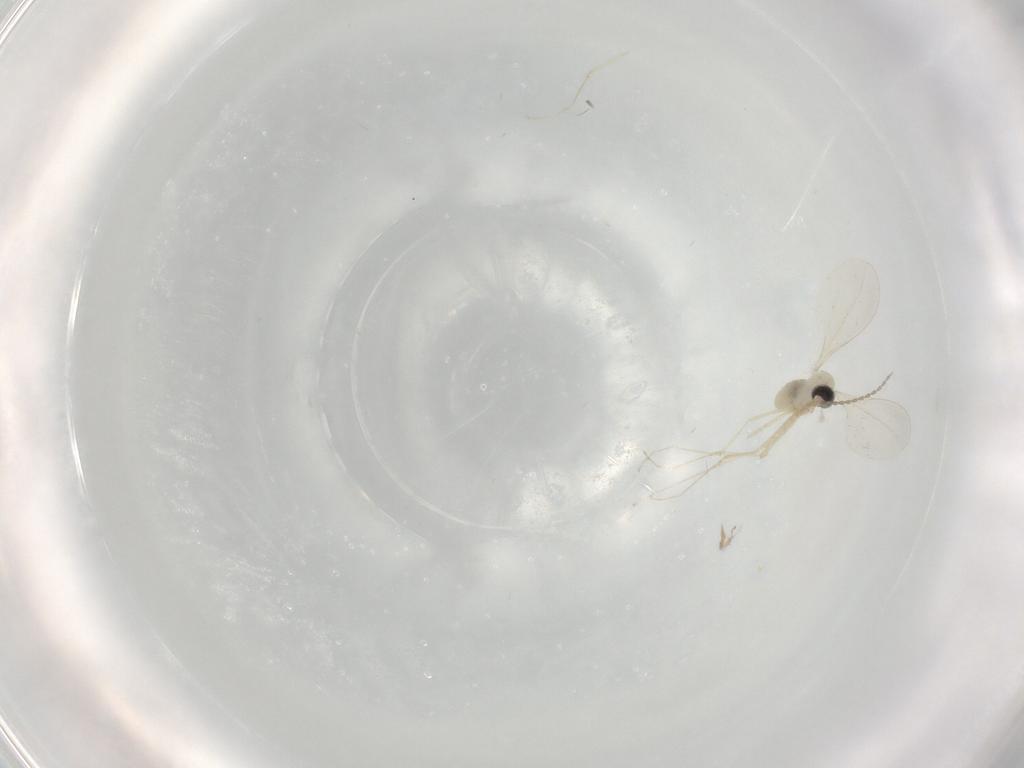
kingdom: Animalia
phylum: Arthropoda
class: Insecta
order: Diptera
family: Cecidomyiidae
